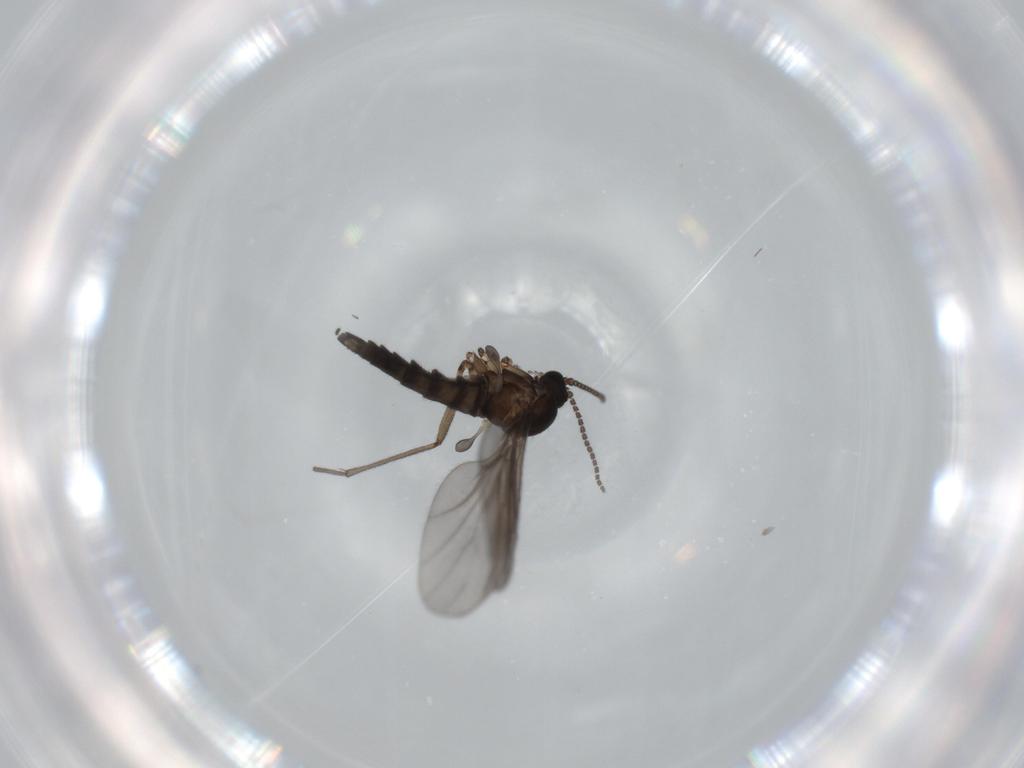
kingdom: Animalia
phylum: Arthropoda
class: Insecta
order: Diptera
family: Sciaridae
